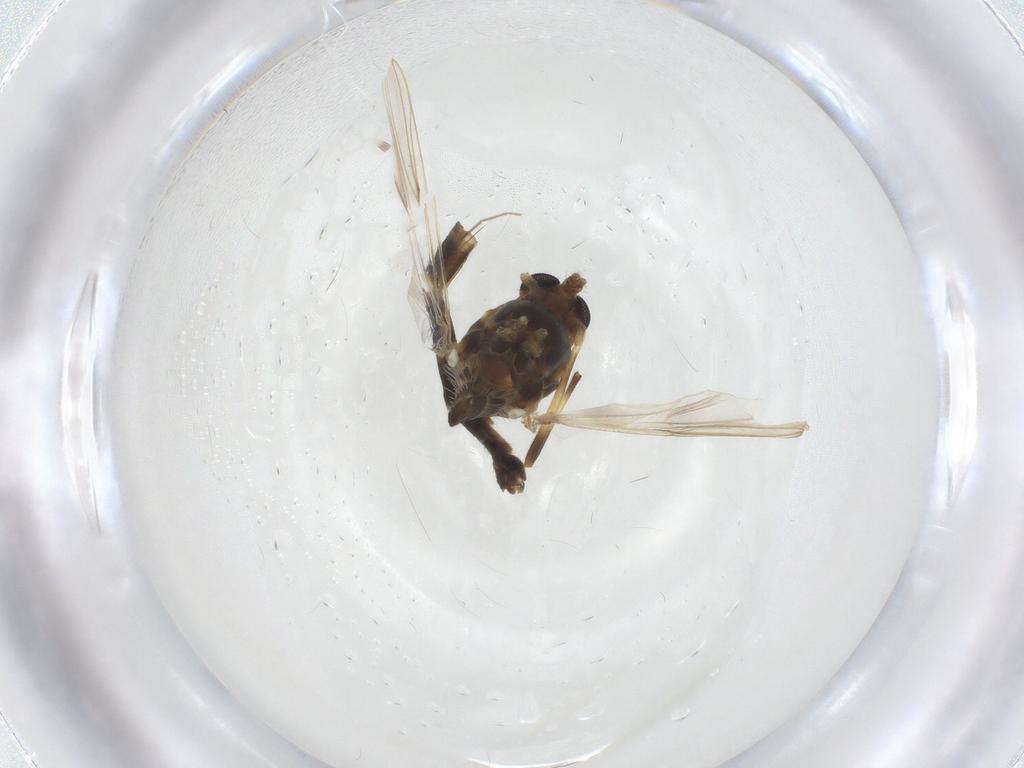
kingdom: Animalia
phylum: Arthropoda
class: Insecta
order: Diptera
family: Chironomidae
